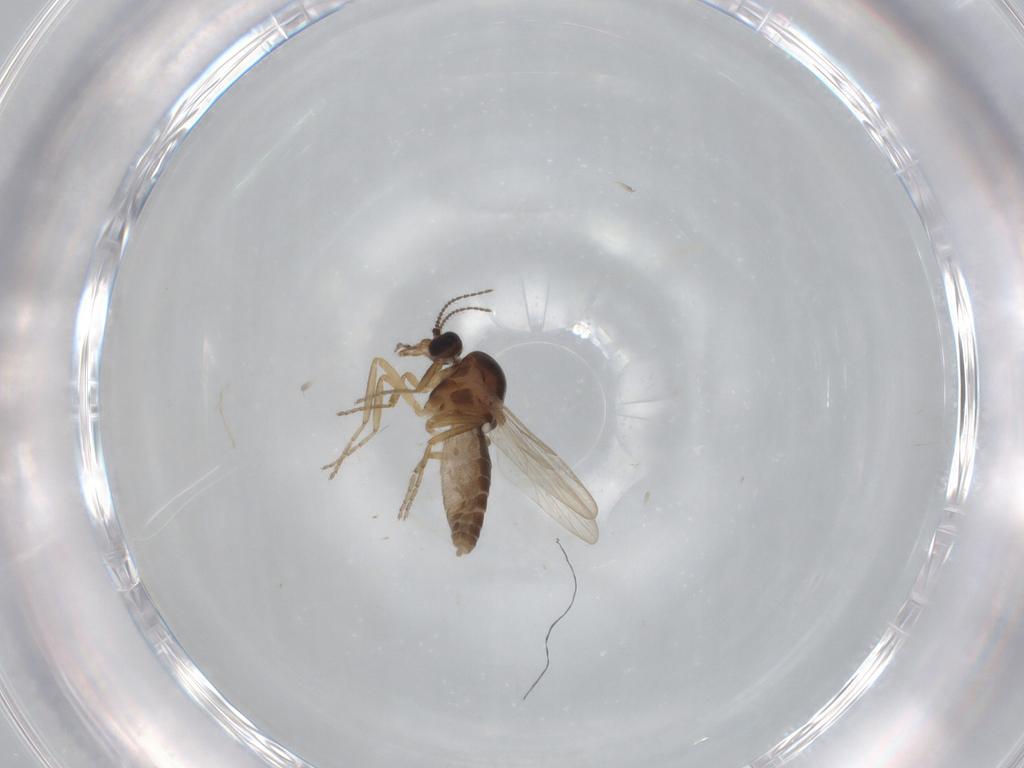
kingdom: Animalia
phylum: Arthropoda
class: Insecta
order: Diptera
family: Ceratopogonidae
